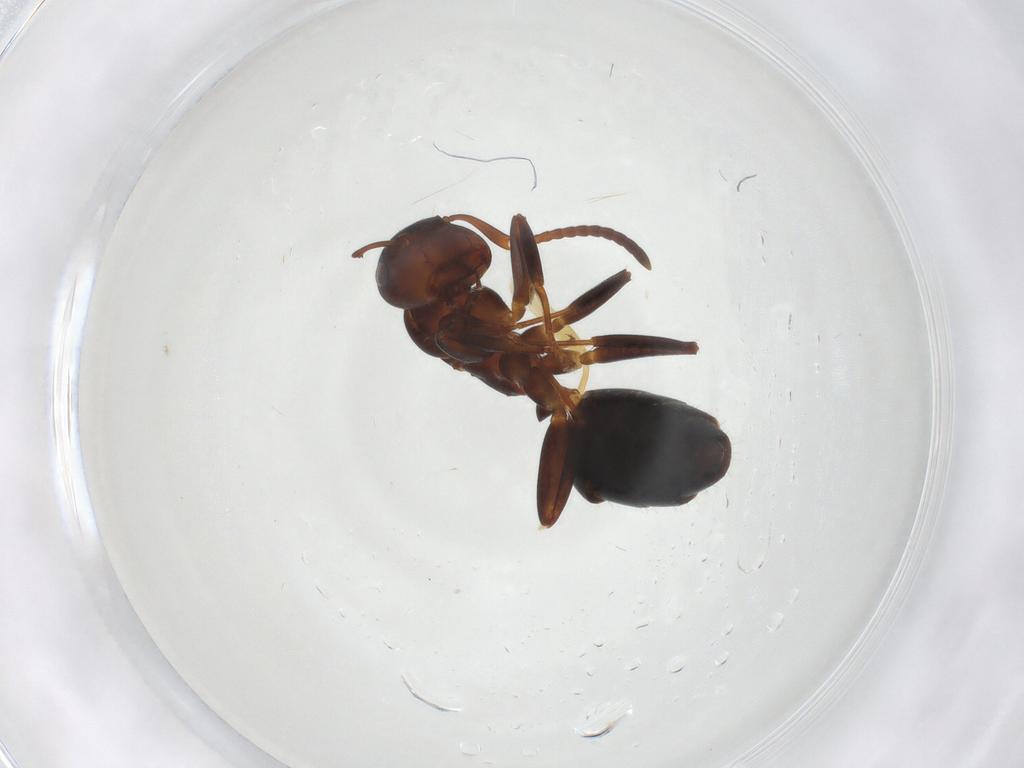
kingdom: Animalia
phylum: Arthropoda
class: Insecta
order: Hymenoptera
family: Formicidae
